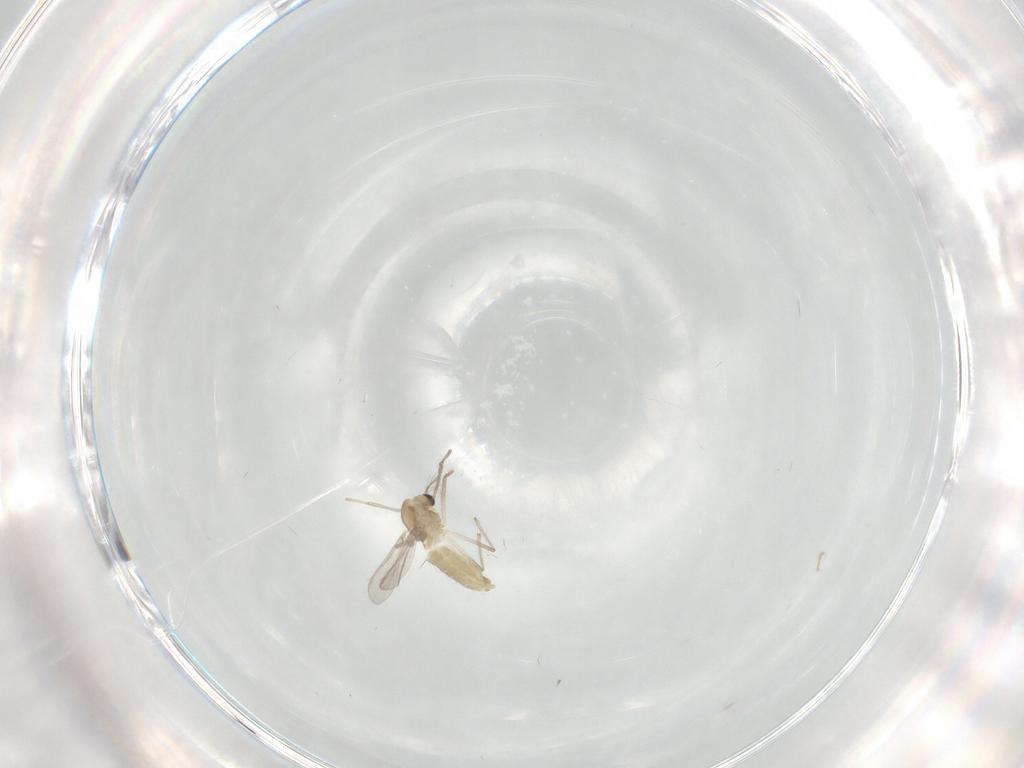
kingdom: Animalia
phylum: Arthropoda
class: Insecta
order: Diptera
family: Chironomidae
